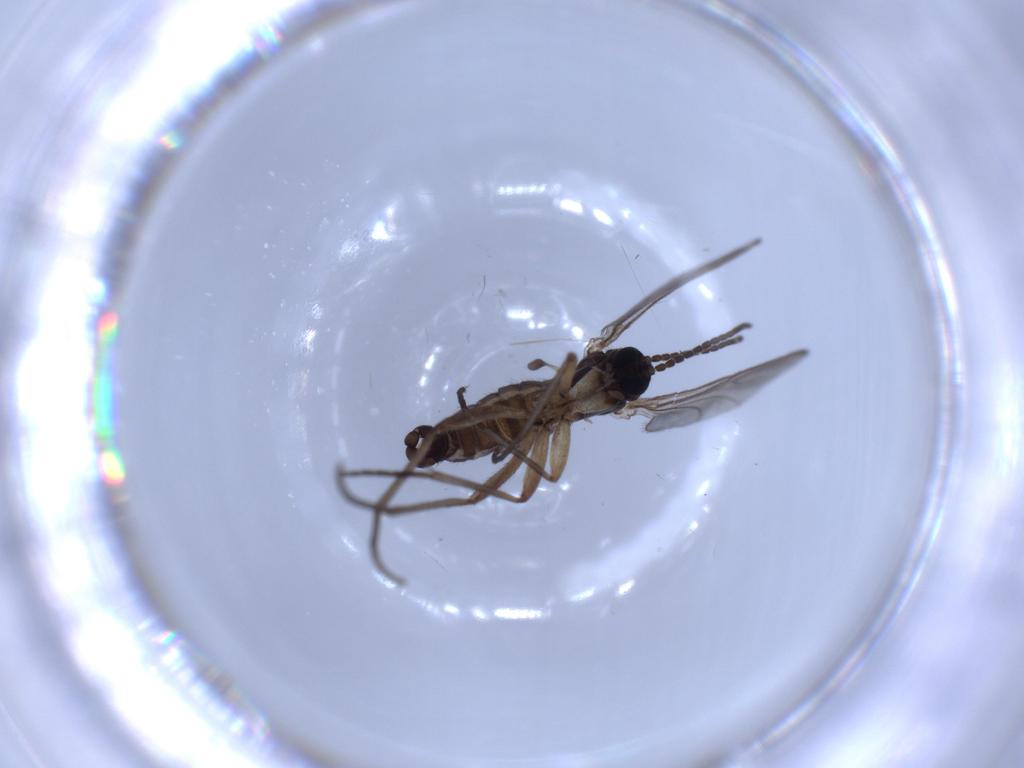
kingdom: Animalia
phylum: Arthropoda
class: Insecta
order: Diptera
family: Sciaridae
